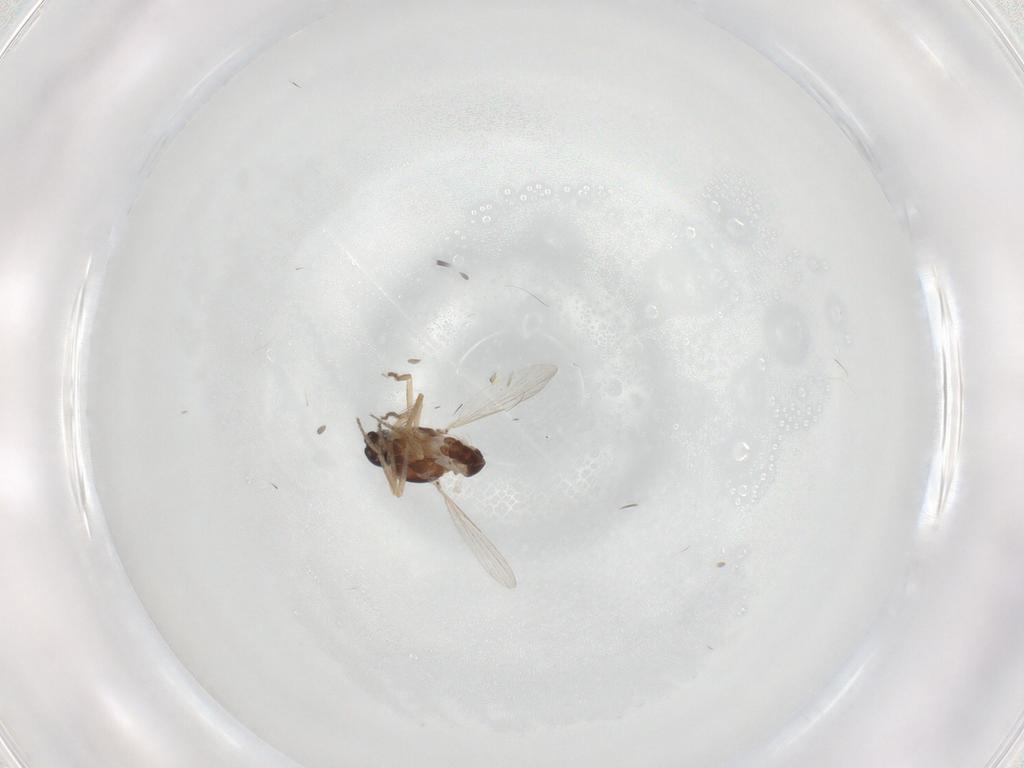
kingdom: Animalia
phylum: Arthropoda
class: Insecta
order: Diptera
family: Ceratopogonidae
